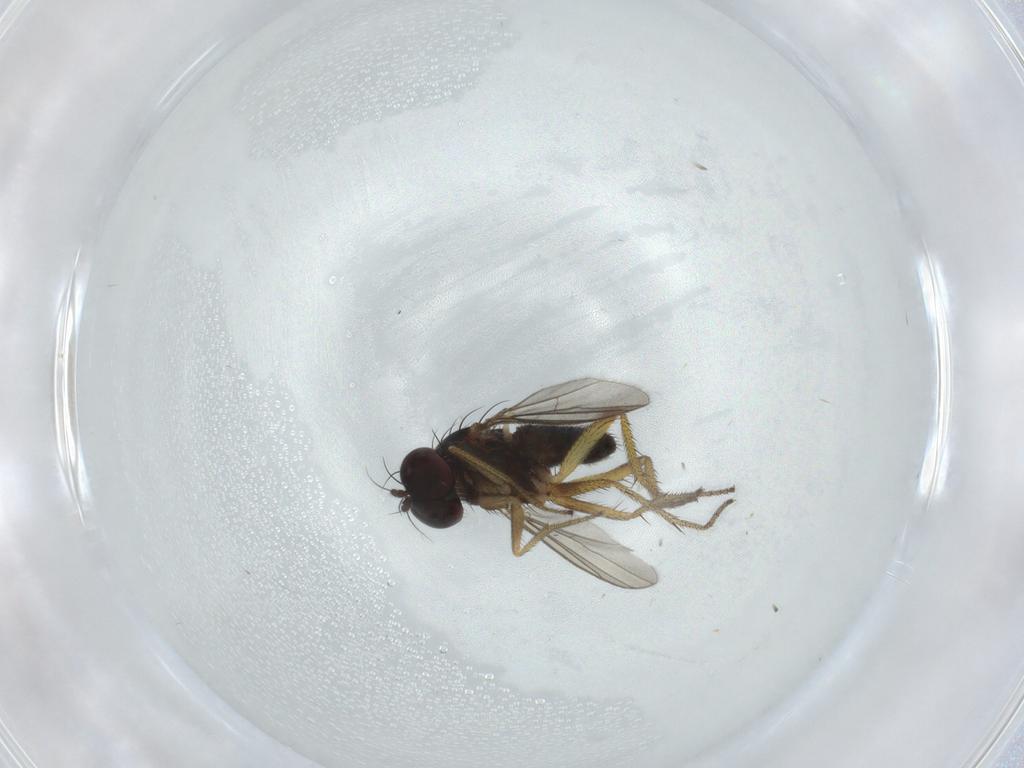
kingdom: Animalia
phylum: Arthropoda
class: Insecta
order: Diptera
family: Dolichopodidae
